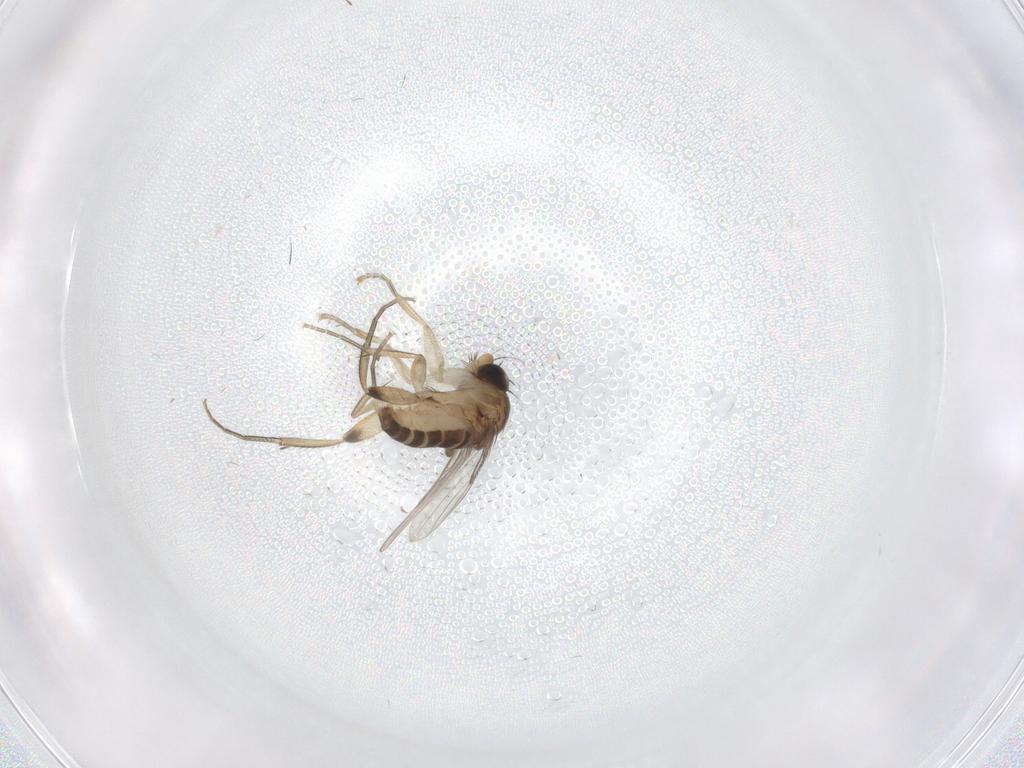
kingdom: Animalia
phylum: Arthropoda
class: Insecta
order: Diptera
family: Phoridae
